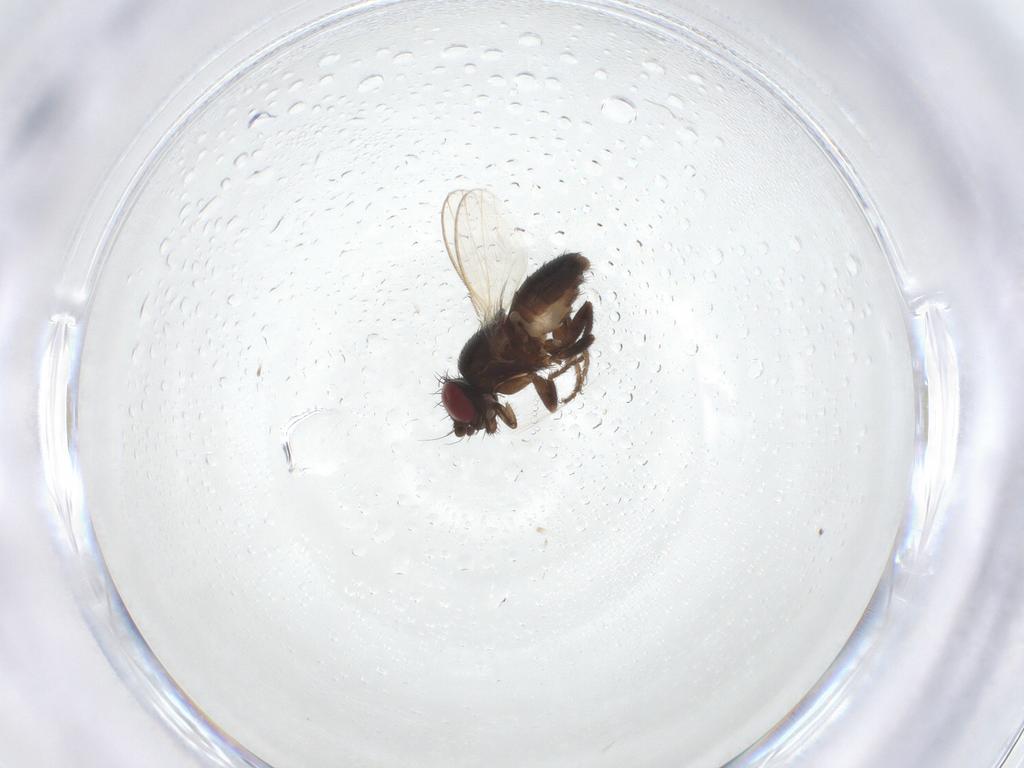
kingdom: Animalia
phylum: Arthropoda
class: Insecta
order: Diptera
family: Milichiidae
